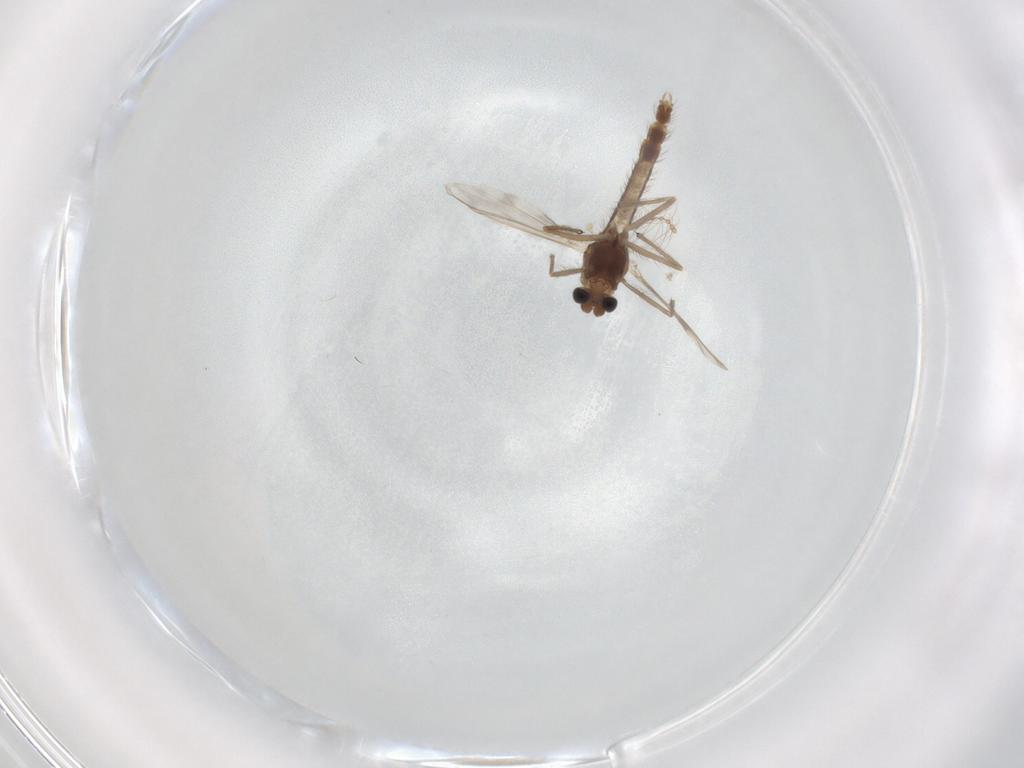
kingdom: Animalia
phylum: Arthropoda
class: Insecta
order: Diptera
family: Chironomidae
